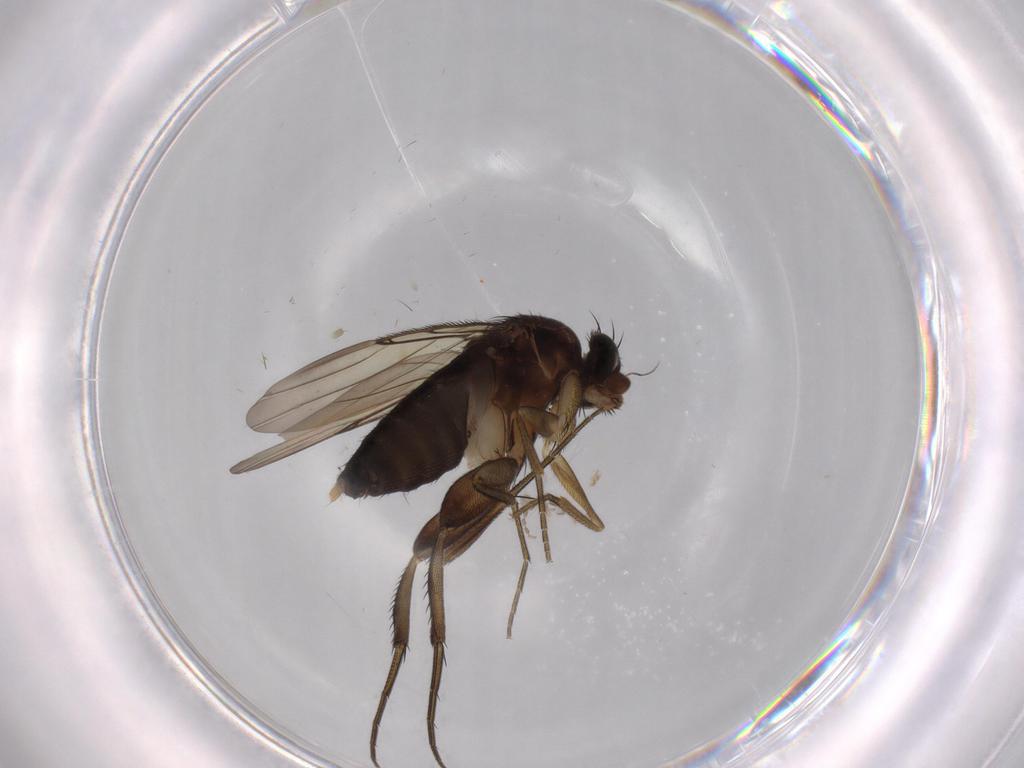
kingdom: Animalia
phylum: Arthropoda
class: Insecta
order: Diptera
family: Phoridae
